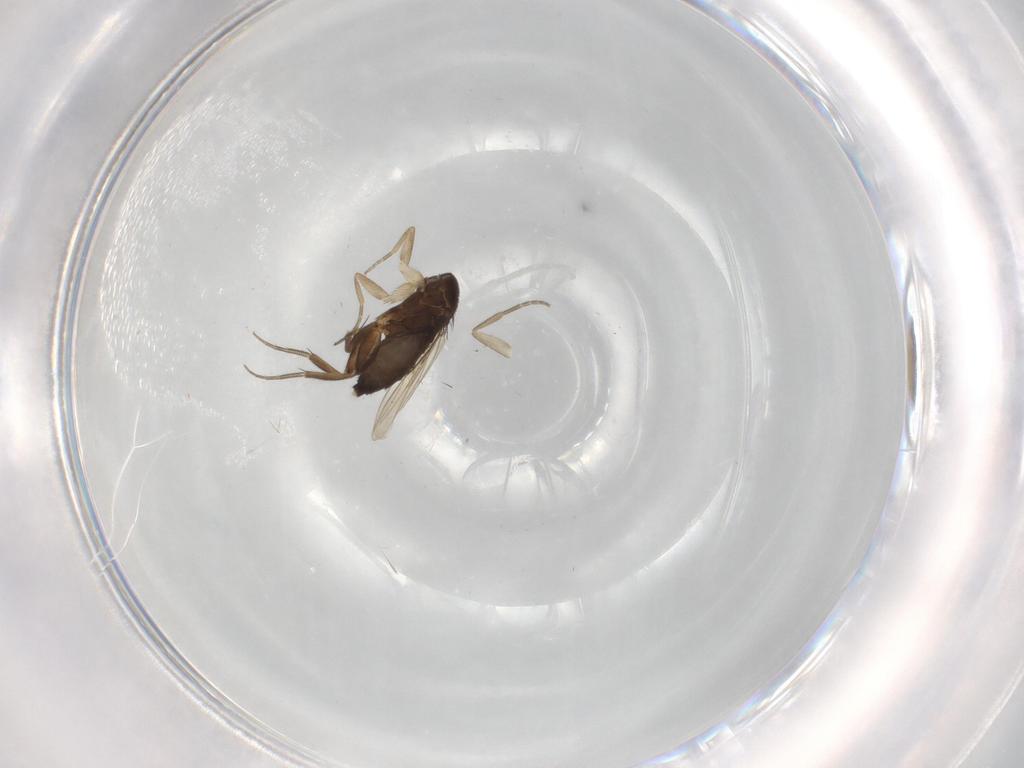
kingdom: Animalia
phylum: Arthropoda
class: Insecta
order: Diptera
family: Phoridae
